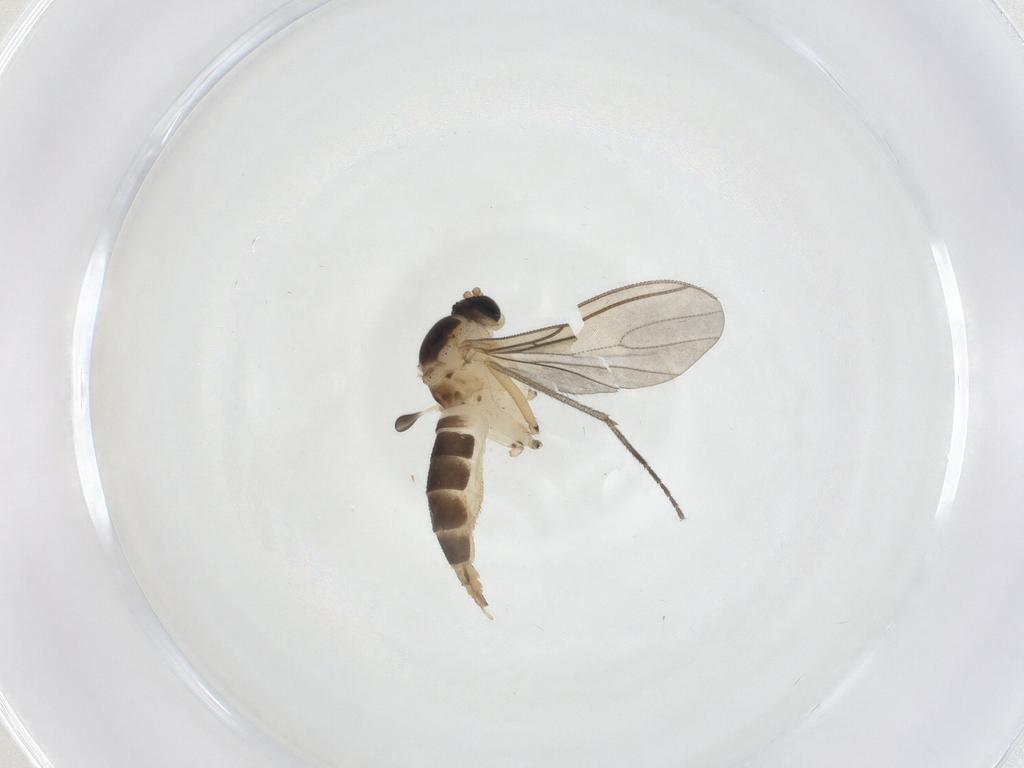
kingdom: Animalia
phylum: Arthropoda
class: Insecta
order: Diptera
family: Sciaridae
